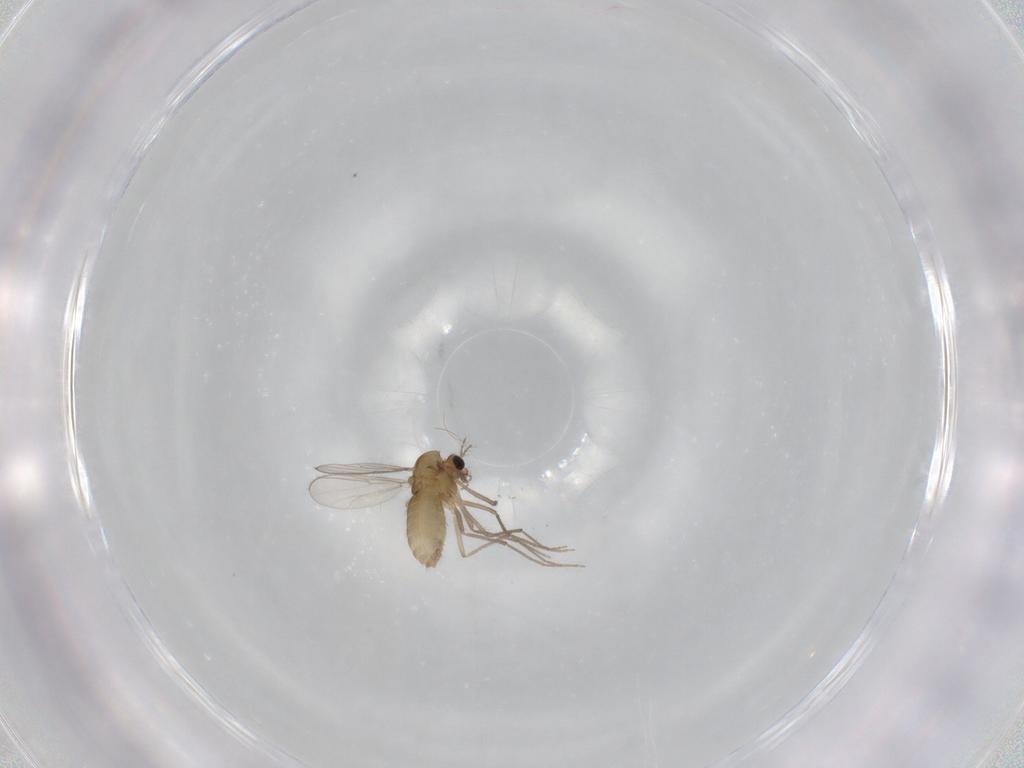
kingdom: Animalia
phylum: Arthropoda
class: Insecta
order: Diptera
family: Chironomidae
